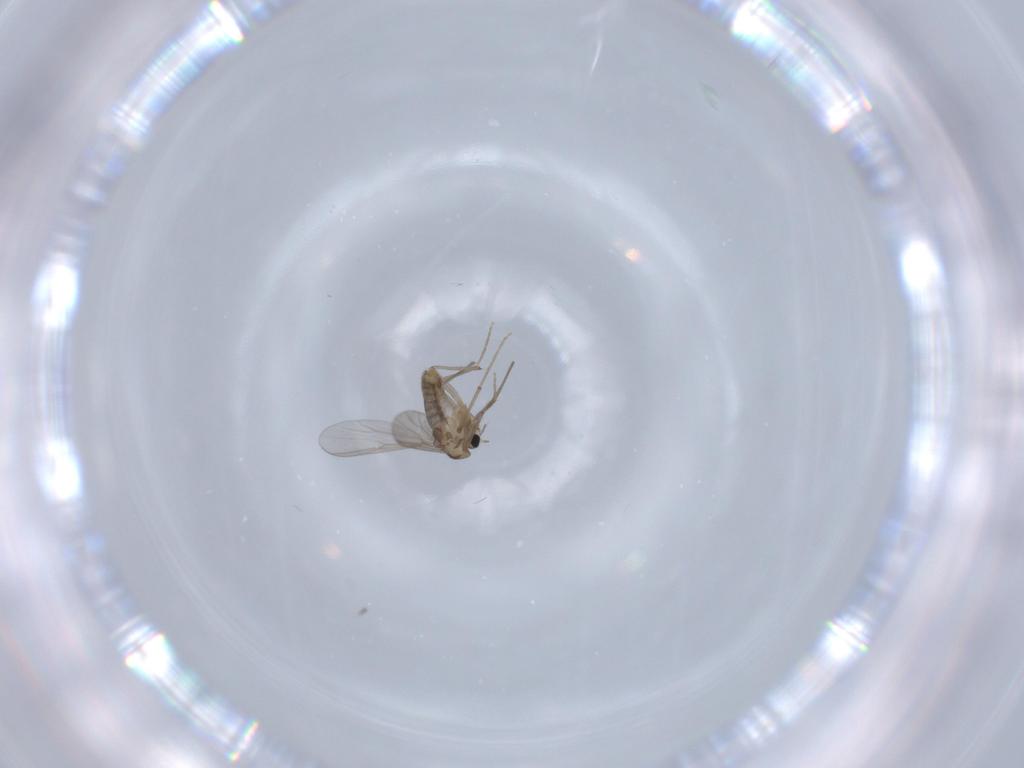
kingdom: Animalia
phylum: Arthropoda
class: Insecta
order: Diptera
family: Chironomidae
